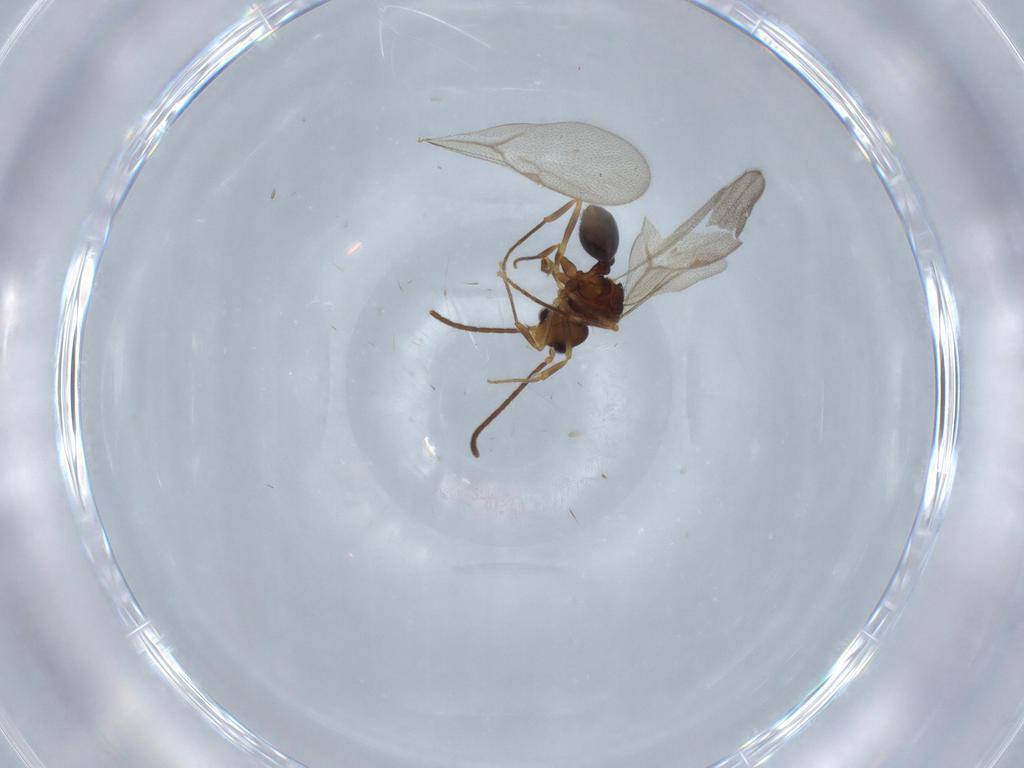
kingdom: Animalia
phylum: Arthropoda
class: Insecta
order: Hymenoptera
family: Formicidae
